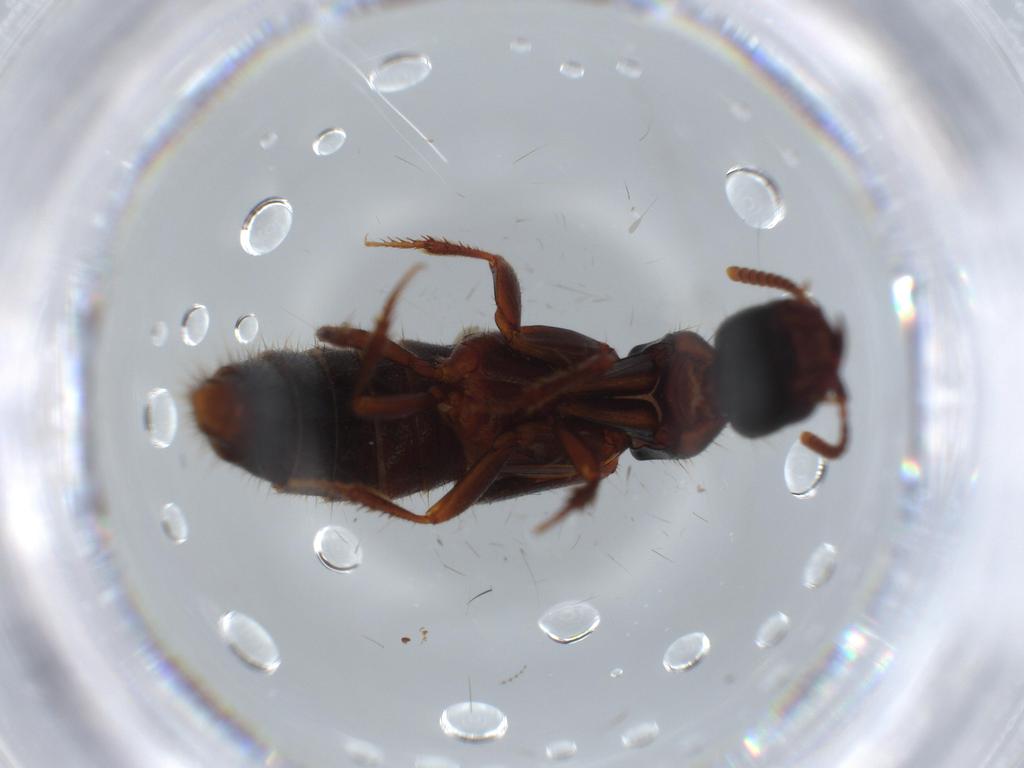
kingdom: Animalia
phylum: Arthropoda
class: Insecta
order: Coleoptera
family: Staphylinidae
